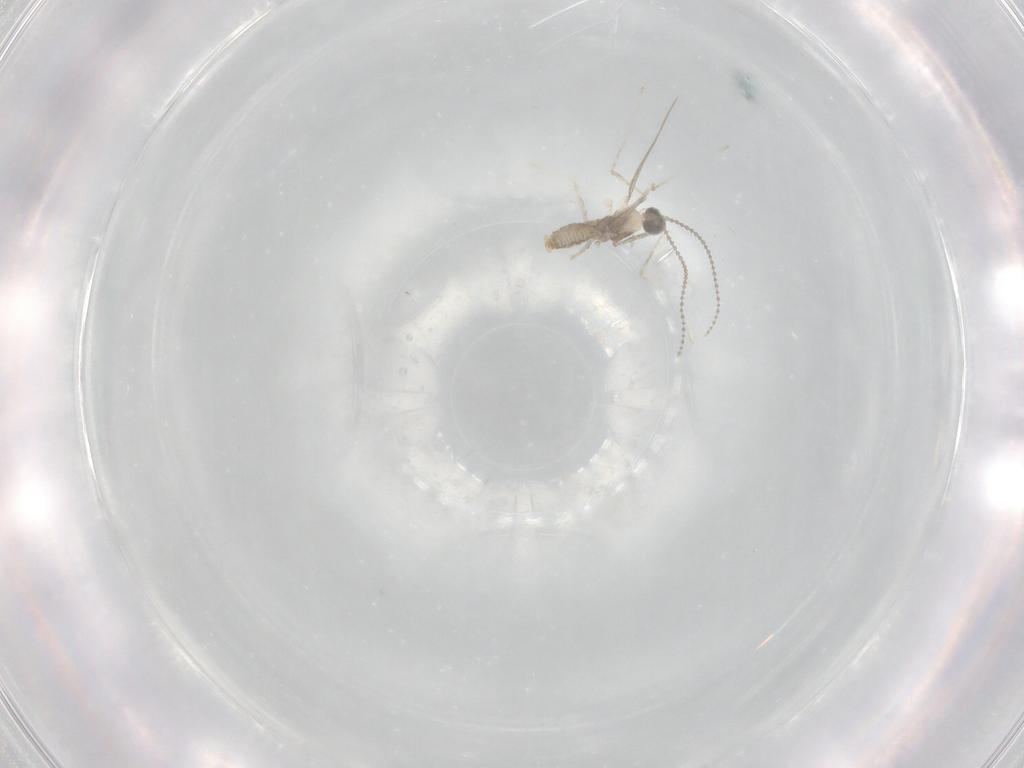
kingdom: Animalia
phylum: Arthropoda
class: Insecta
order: Diptera
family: Cecidomyiidae
